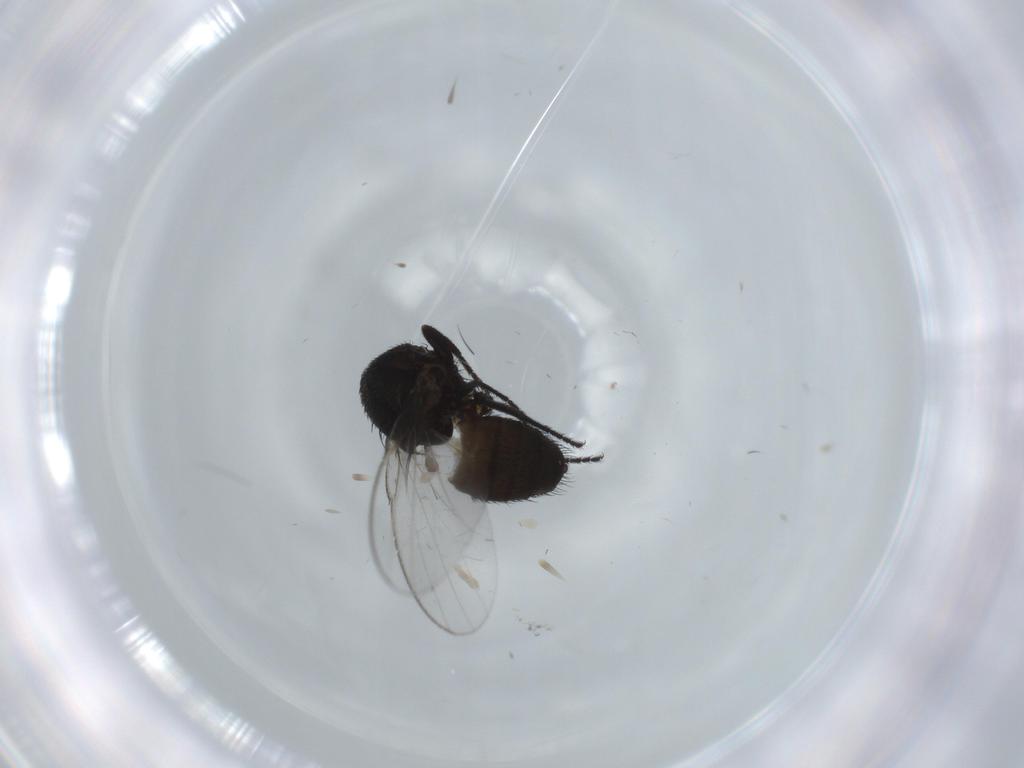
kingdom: Animalia
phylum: Arthropoda
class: Insecta
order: Diptera
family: Milichiidae
